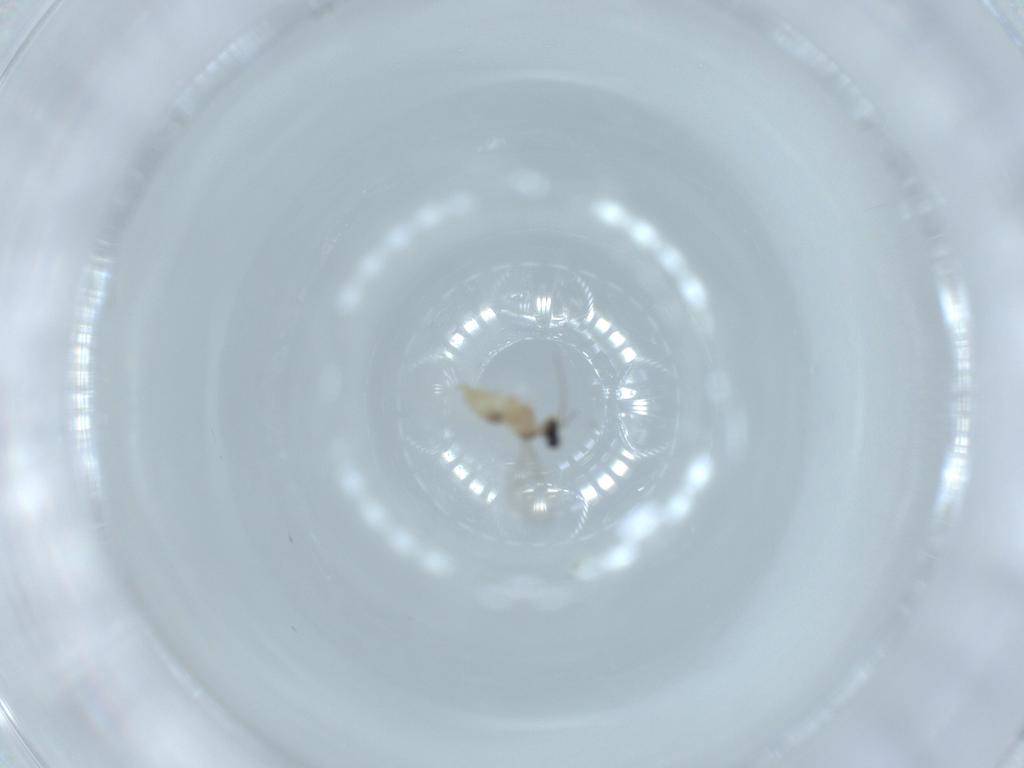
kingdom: Animalia
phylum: Arthropoda
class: Insecta
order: Diptera
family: Cecidomyiidae
